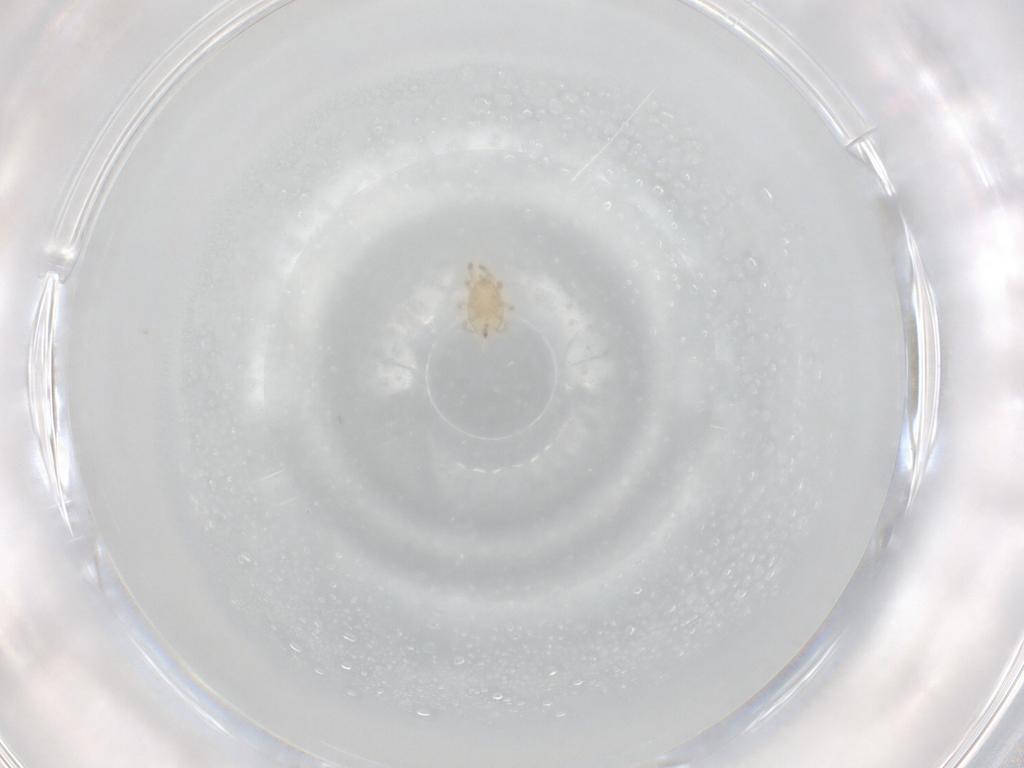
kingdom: Animalia
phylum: Arthropoda
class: Arachnida
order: Mesostigmata
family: Ascidae
